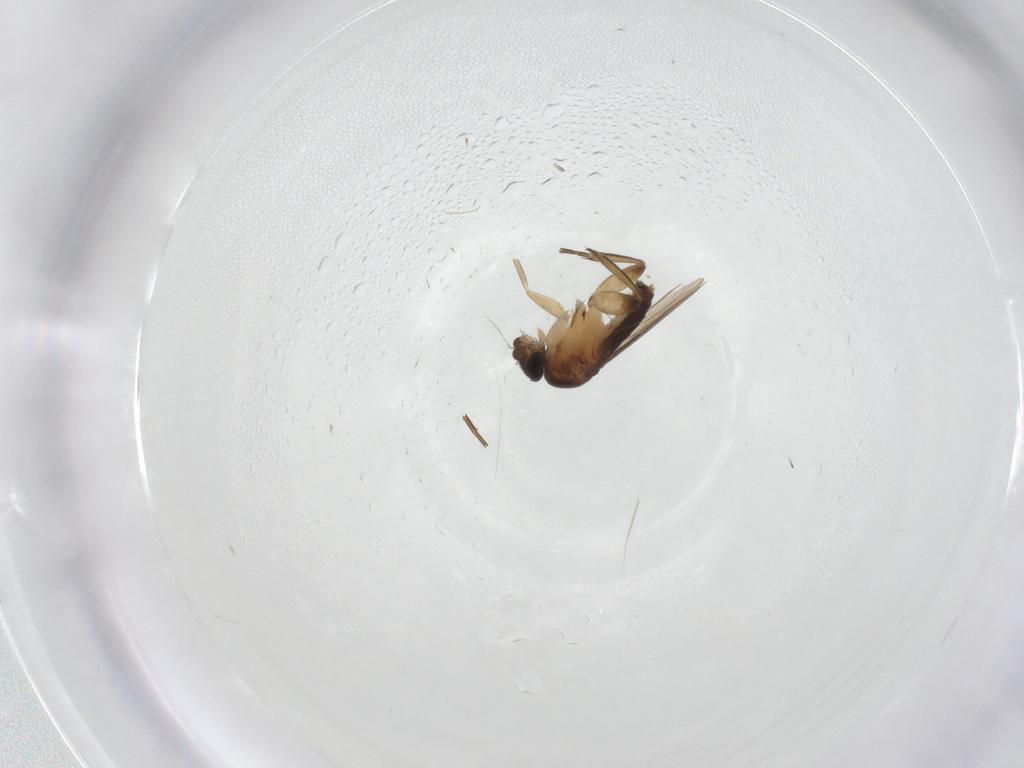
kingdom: Animalia
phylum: Arthropoda
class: Insecta
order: Diptera
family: Phoridae
